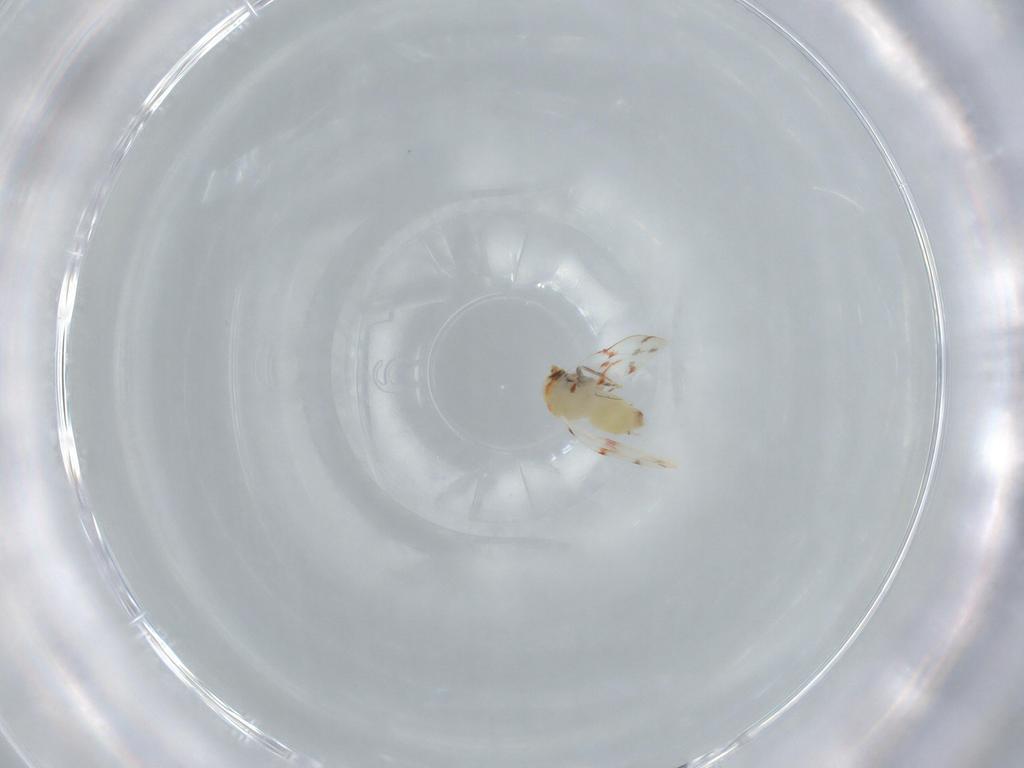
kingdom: Animalia
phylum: Arthropoda
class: Insecta
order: Hemiptera
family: Aleyrodidae
